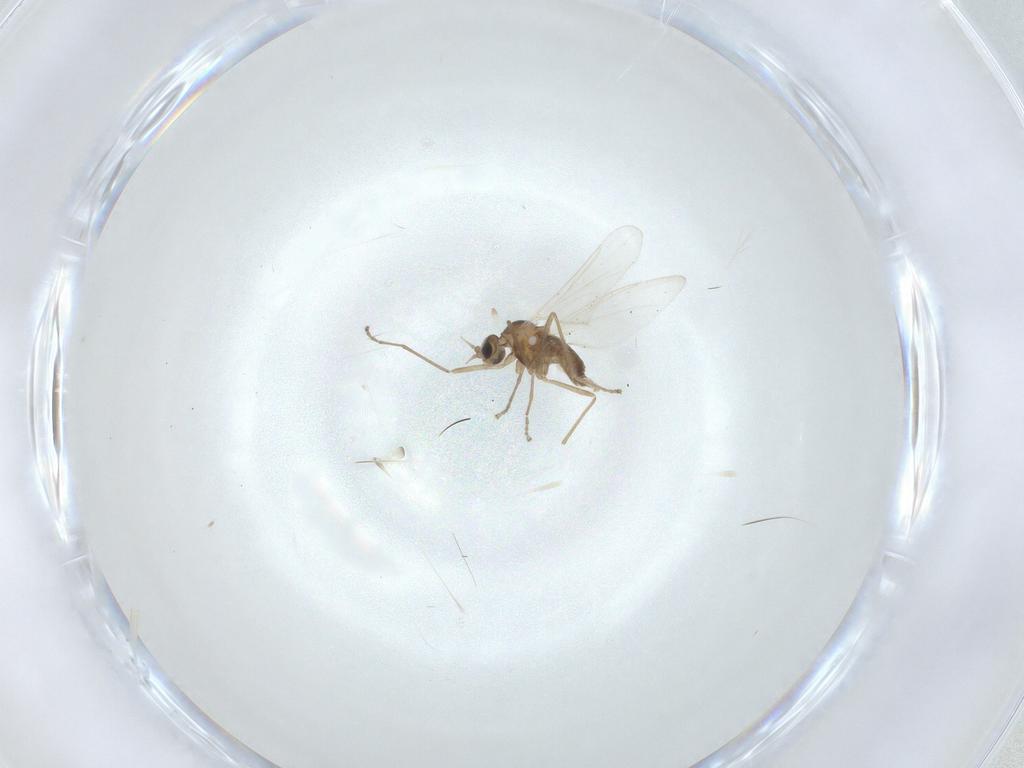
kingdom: Animalia
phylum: Arthropoda
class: Insecta
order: Diptera
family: Cecidomyiidae
